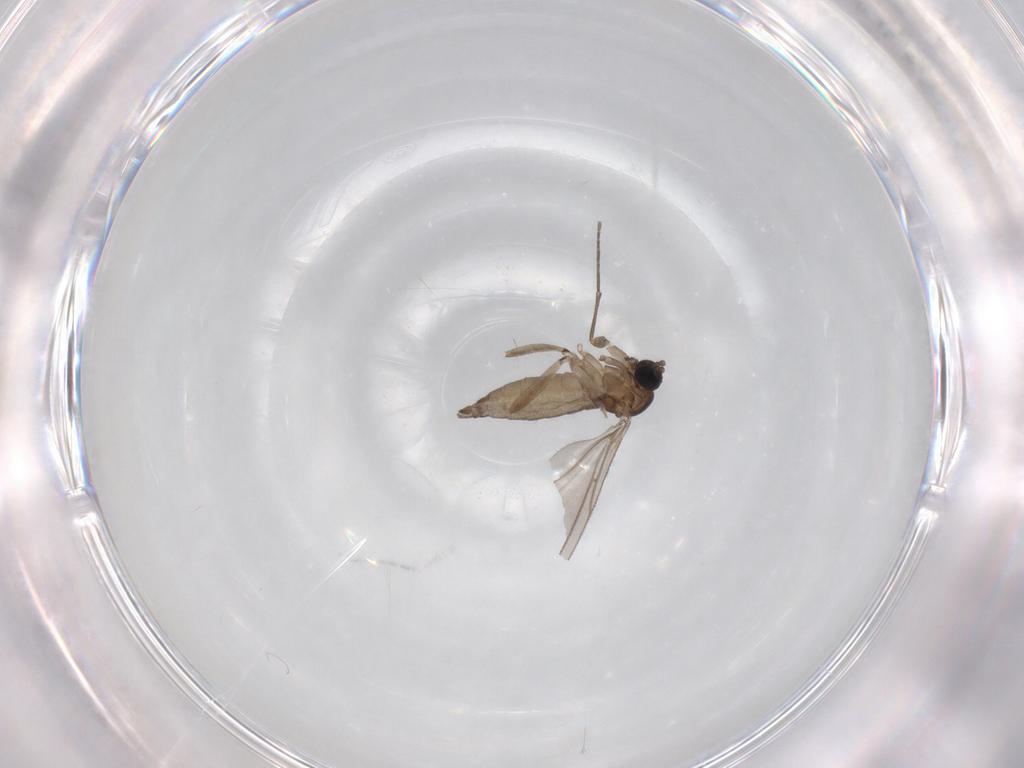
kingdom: Animalia
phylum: Arthropoda
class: Insecta
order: Diptera
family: Sciaridae
